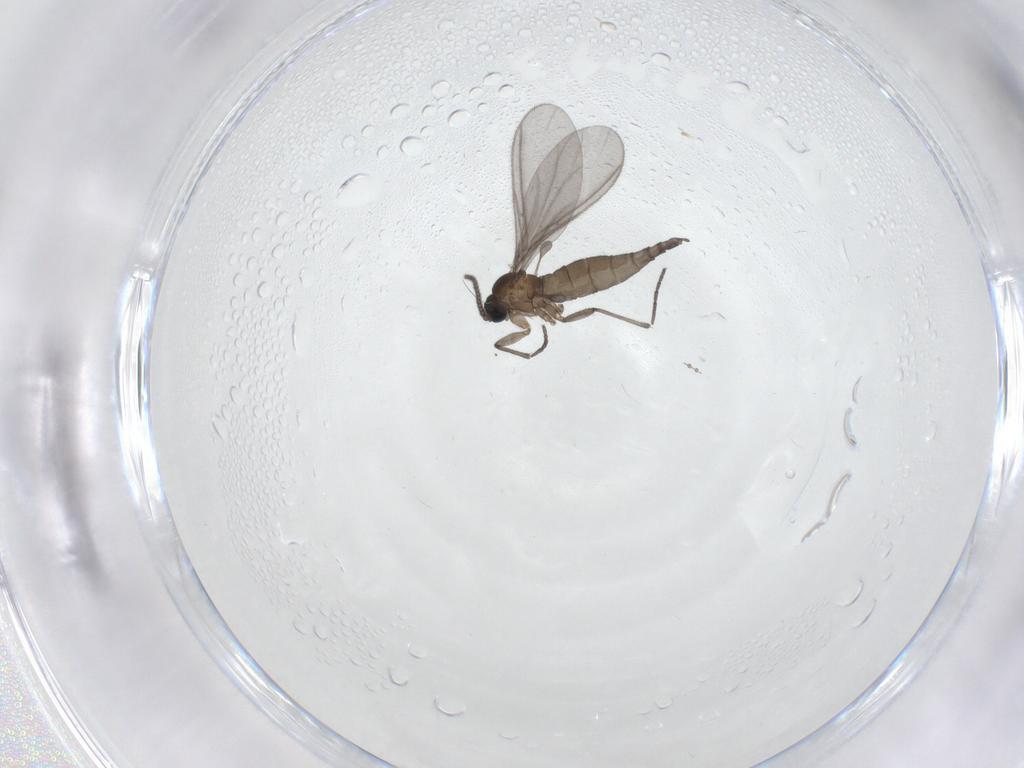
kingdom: Animalia
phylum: Arthropoda
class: Insecta
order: Diptera
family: Sciaridae
